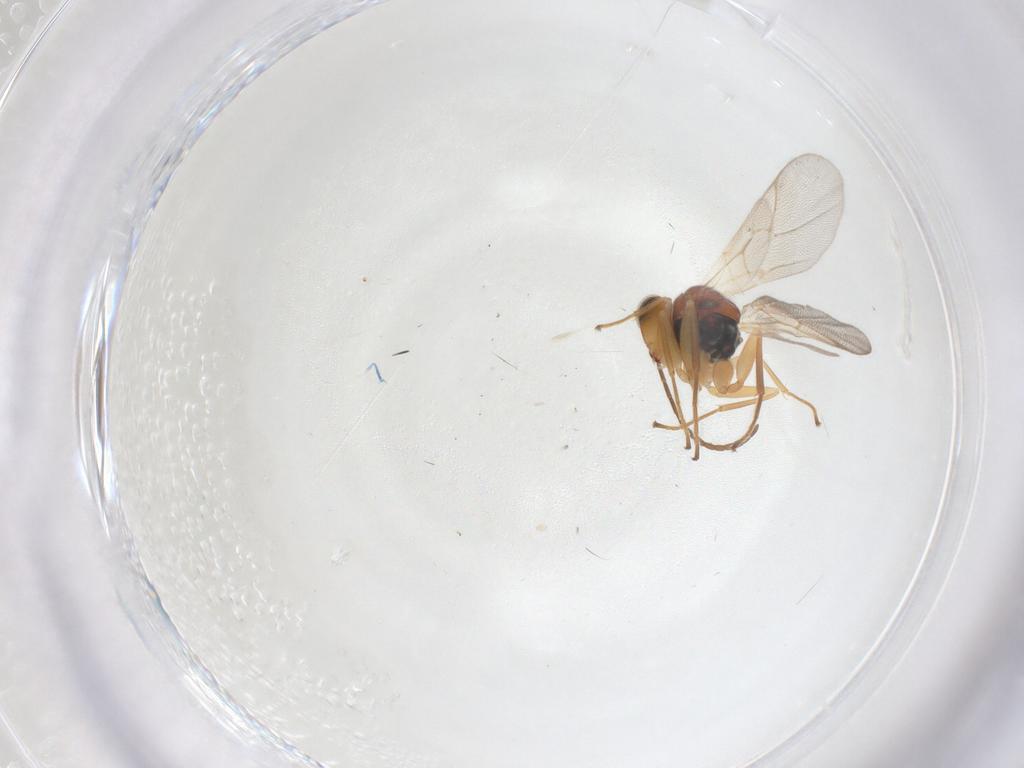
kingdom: Animalia
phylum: Arthropoda
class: Insecta
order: Hymenoptera
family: Cynipidae
